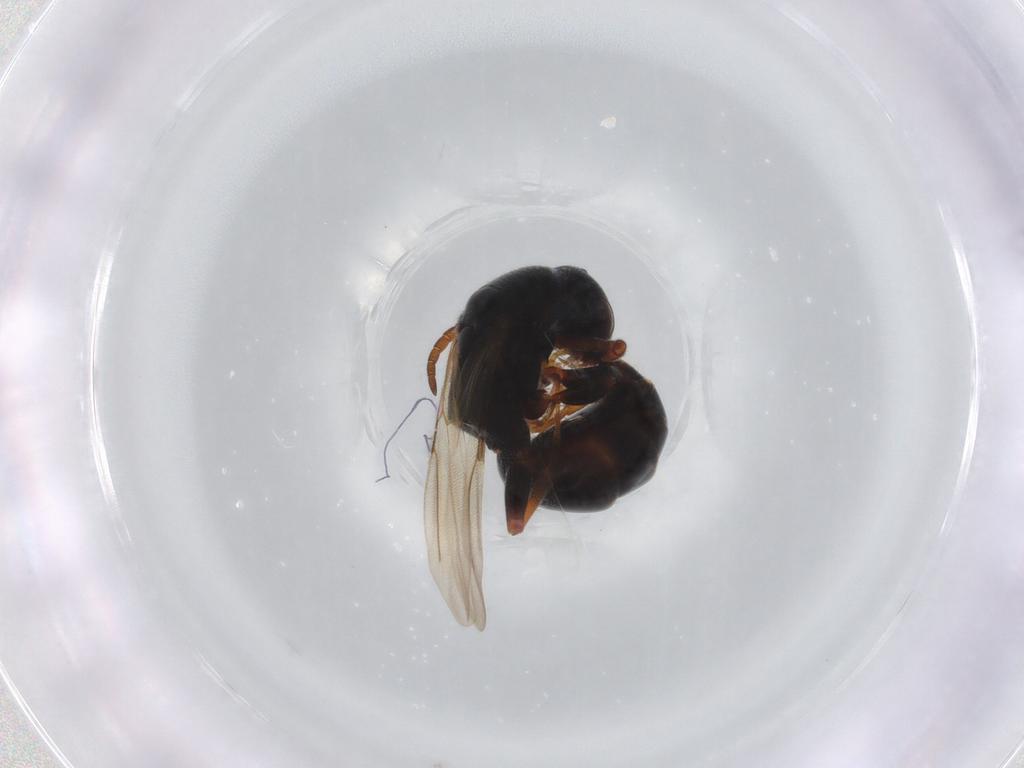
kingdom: Animalia
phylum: Arthropoda
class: Insecta
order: Hymenoptera
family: Bethylidae
